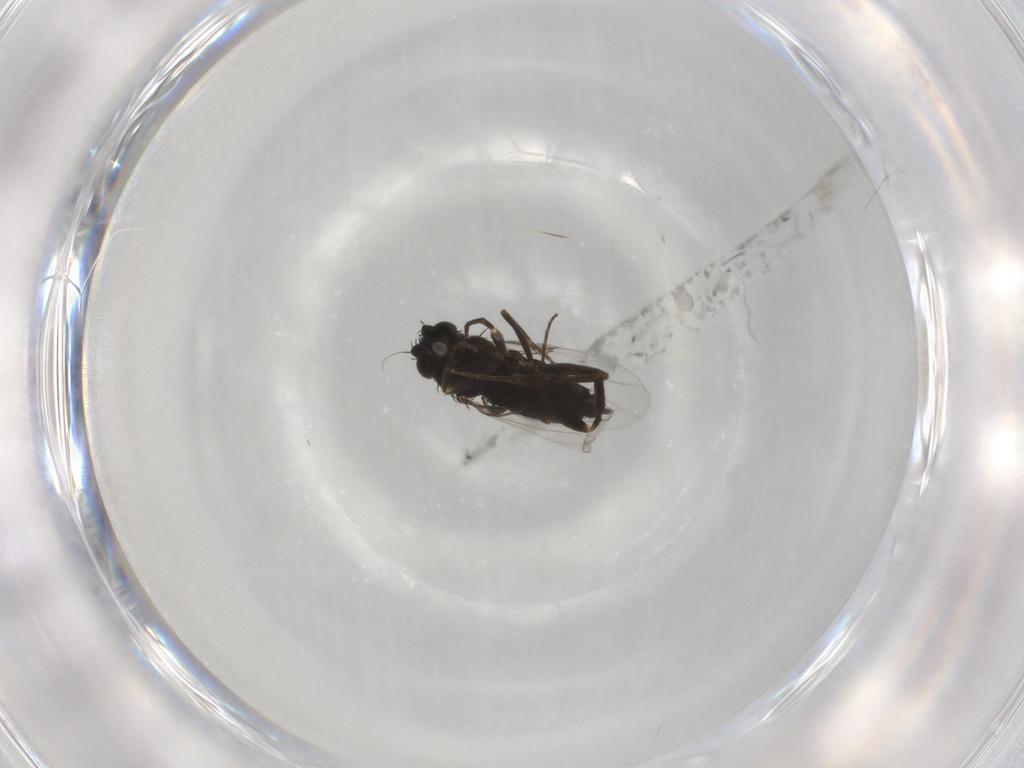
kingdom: Animalia
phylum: Arthropoda
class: Insecta
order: Diptera
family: Phoridae
